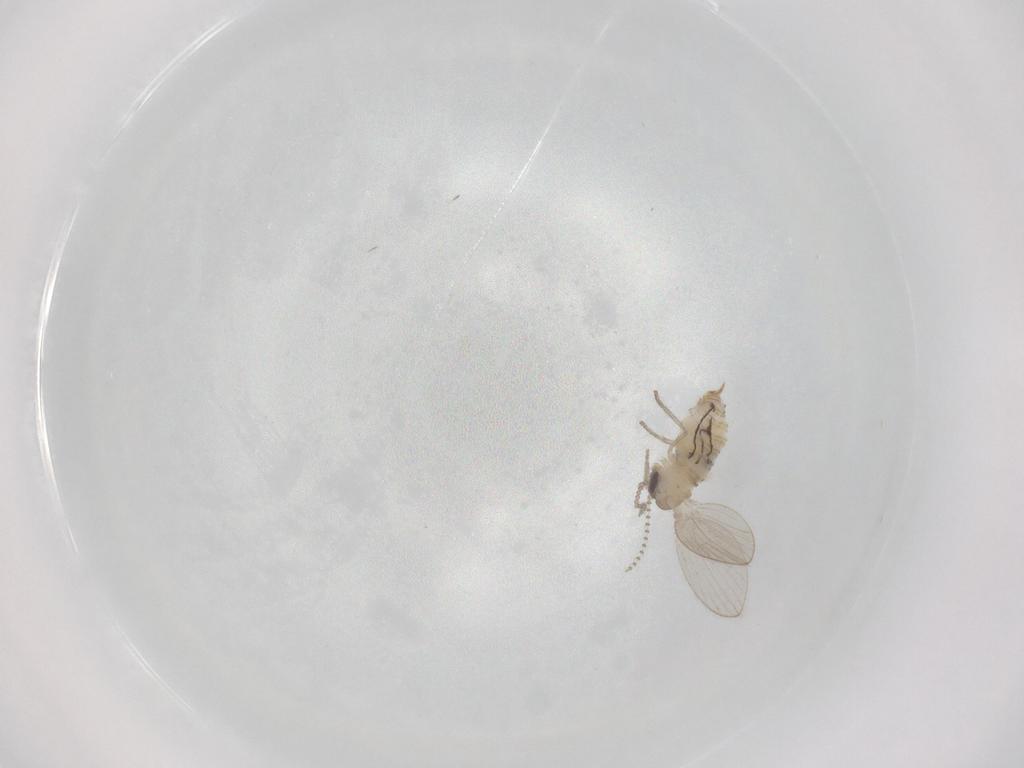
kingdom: Animalia
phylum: Arthropoda
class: Insecta
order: Diptera
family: Psychodidae
